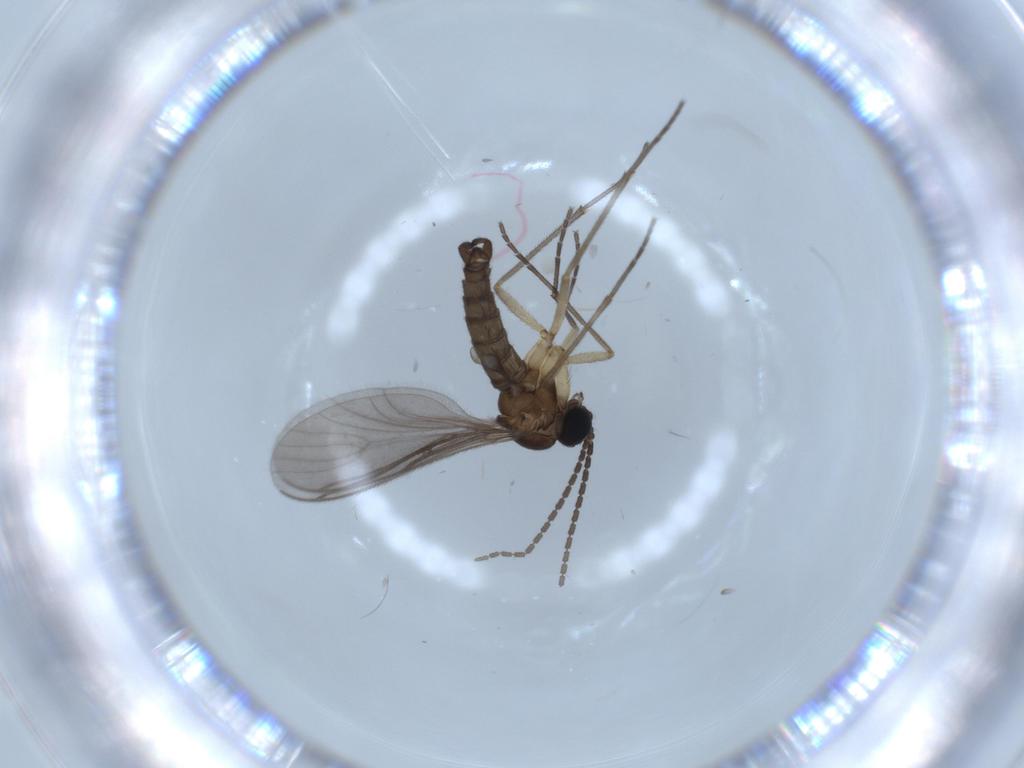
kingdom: Animalia
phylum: Arthropoda
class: Insecta
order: Diptera
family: Sciaridae
